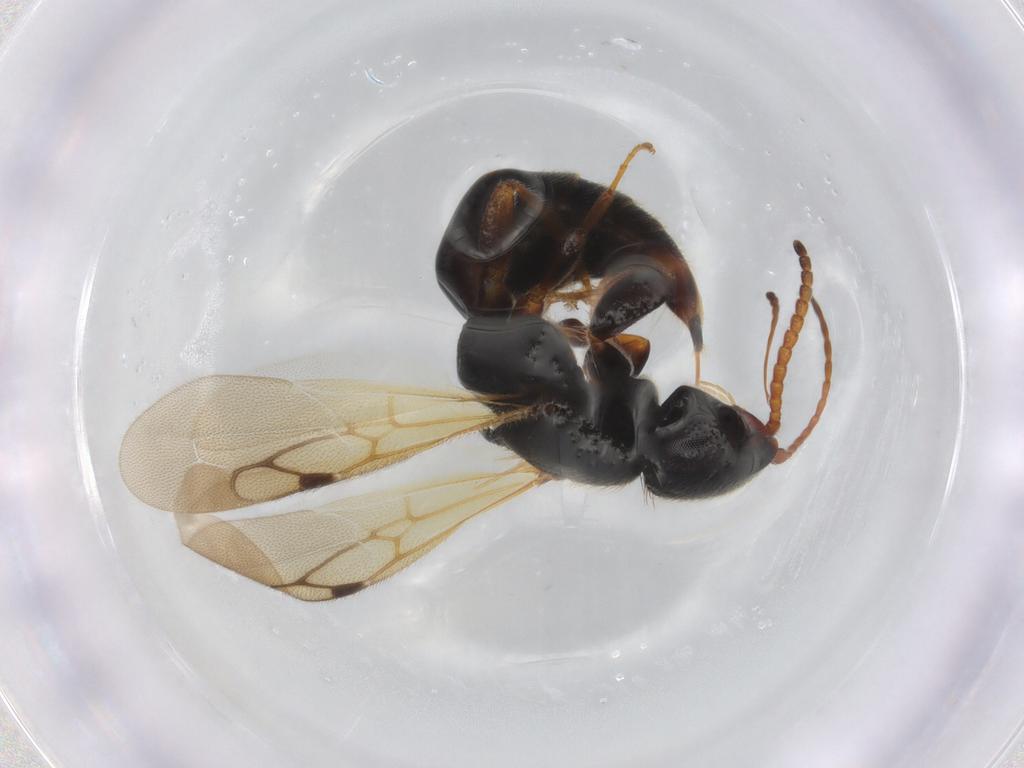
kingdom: Animalia
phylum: Arthropoda
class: Insecta
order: Hymenoptera
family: Bethylidae
